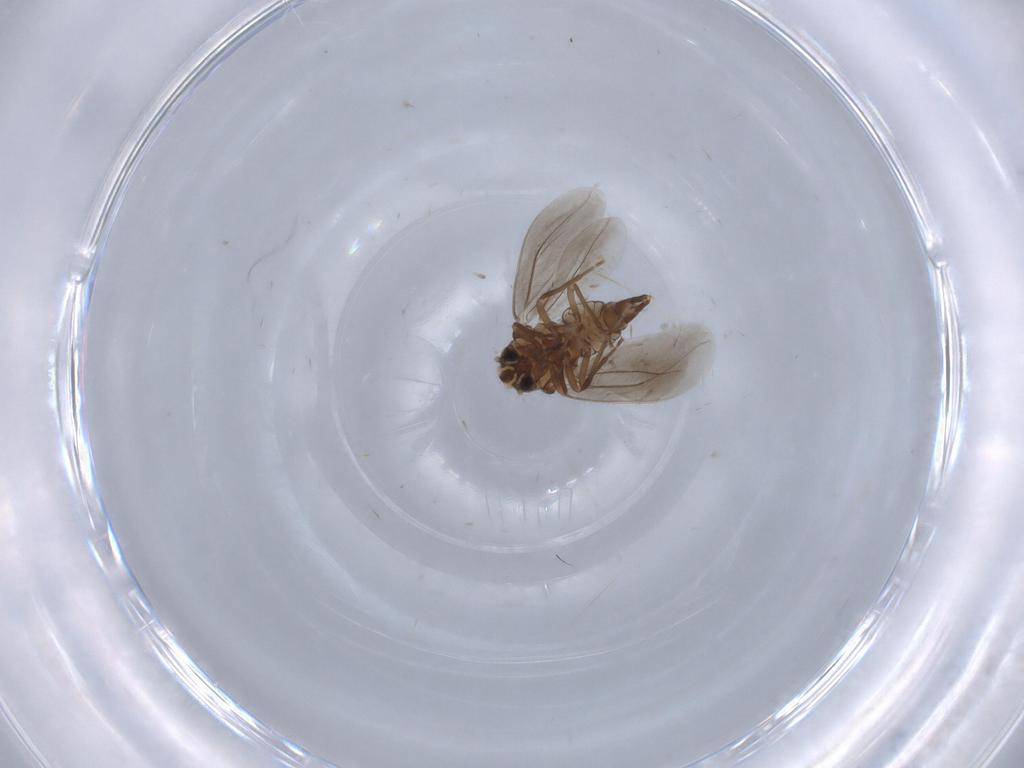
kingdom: Animalia
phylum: Arthropoda
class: Insecta
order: Hemiptera
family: Aleyrodidae
